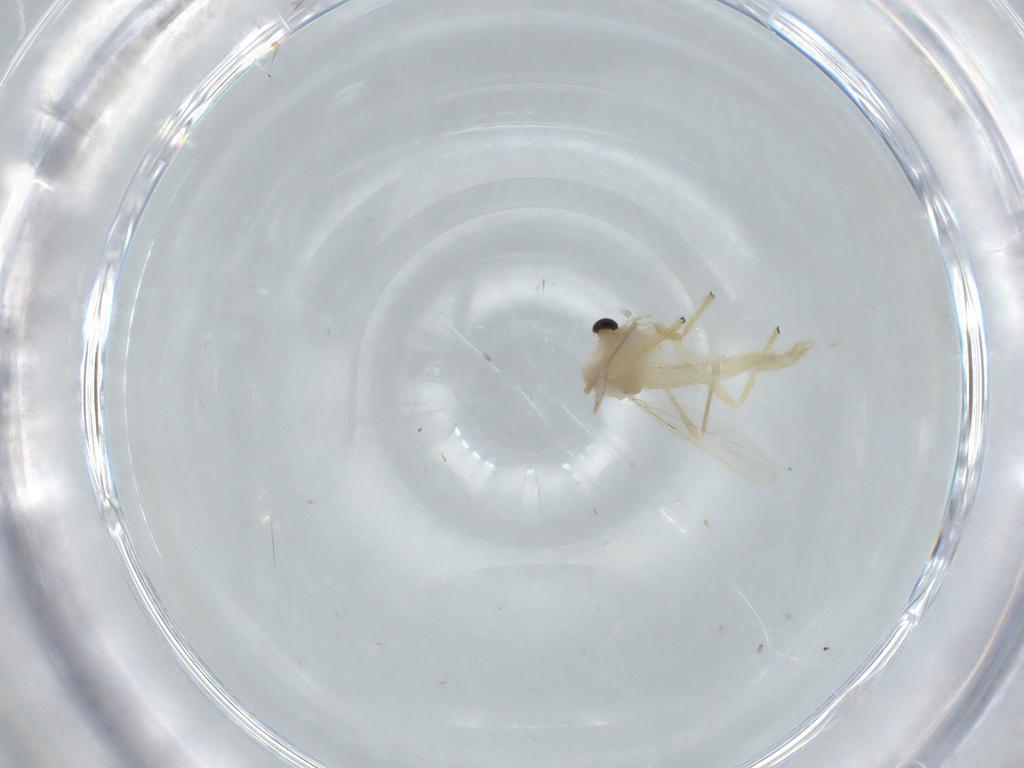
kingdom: Animalia
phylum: Arthropoda
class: Insecta
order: Diptera
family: Chironomidae
